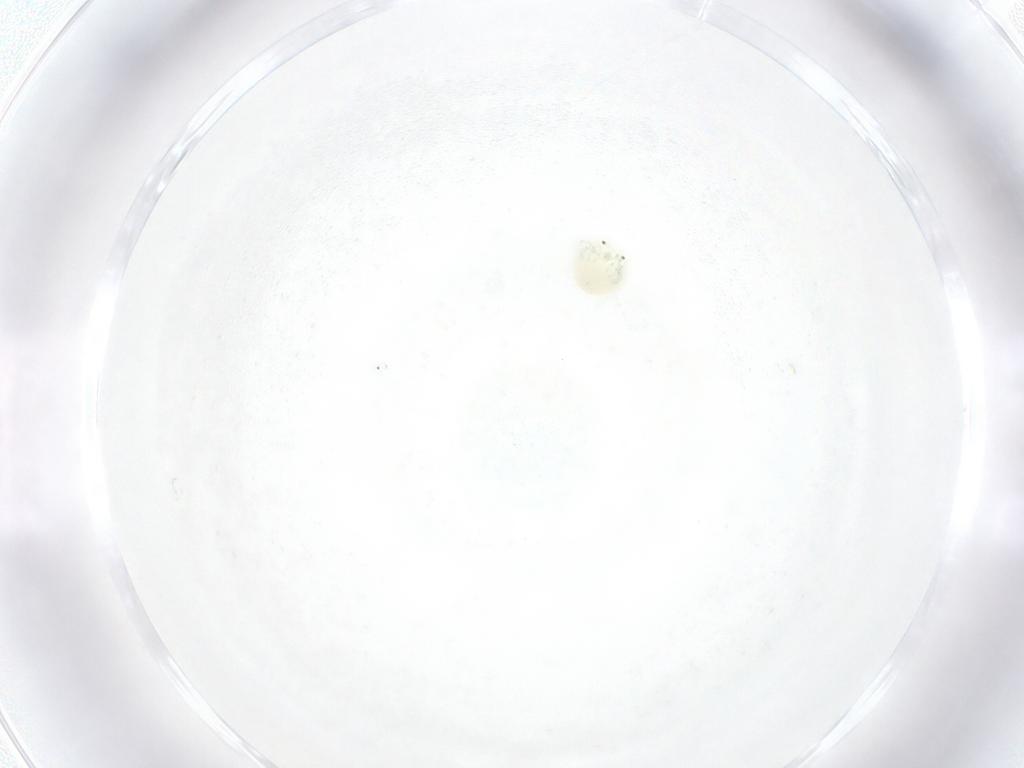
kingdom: Animalia
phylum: Arthropoda
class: Arachnida
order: Trombidiformes
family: Arrenuridae
